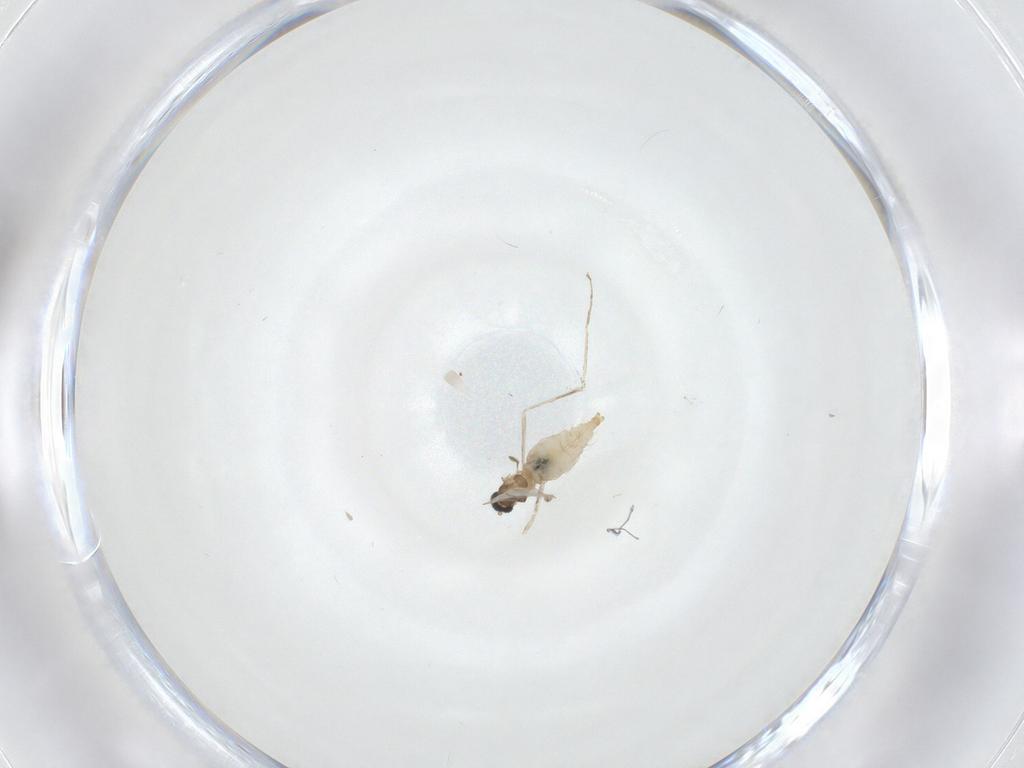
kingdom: Animalia
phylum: Arthropoda
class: Insecta
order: Diptera
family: Cecidomyiidae
